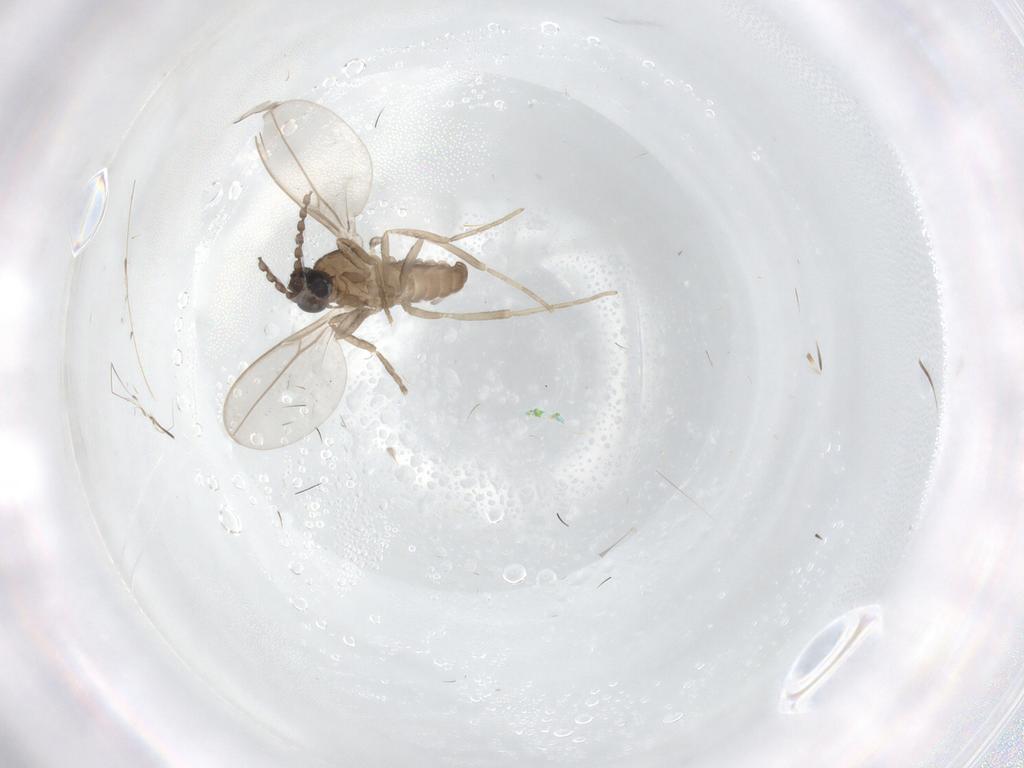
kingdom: Animalia
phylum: Arthropoda
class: Insecta
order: Diptera
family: Cecidomyiidae
